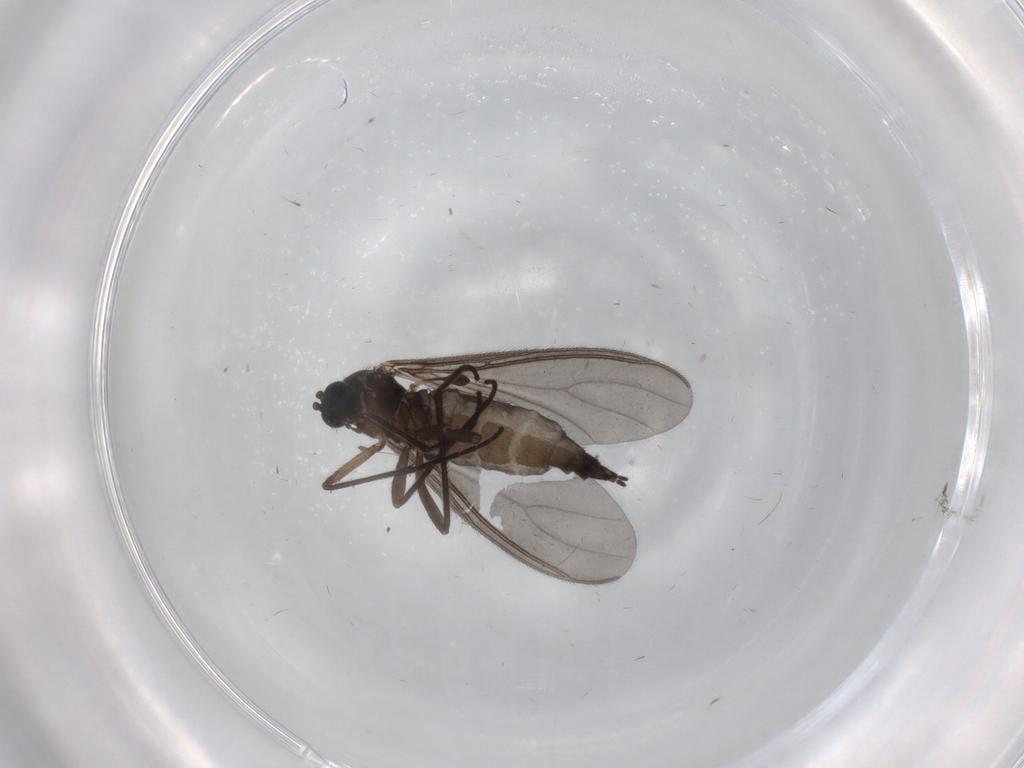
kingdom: Animalia
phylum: Arthropoda
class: Insecta
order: Diptera
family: Sciaridae
